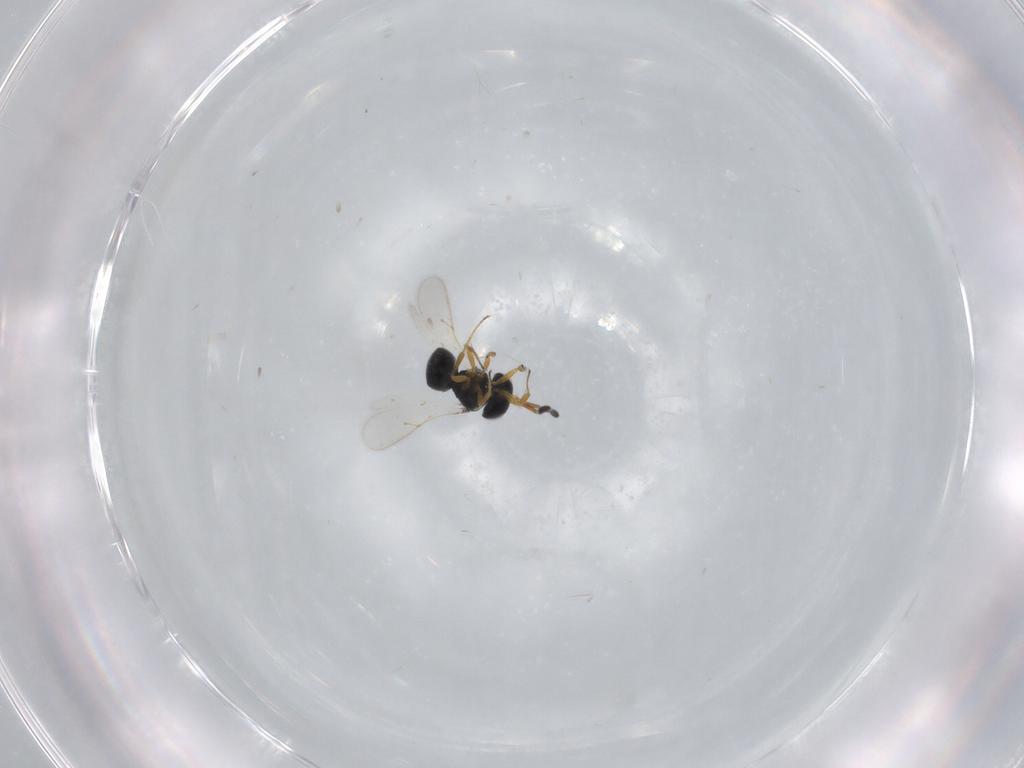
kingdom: Animalia
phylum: Arthropoda
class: Insecta
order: Hymenoptera
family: Scelionidae
